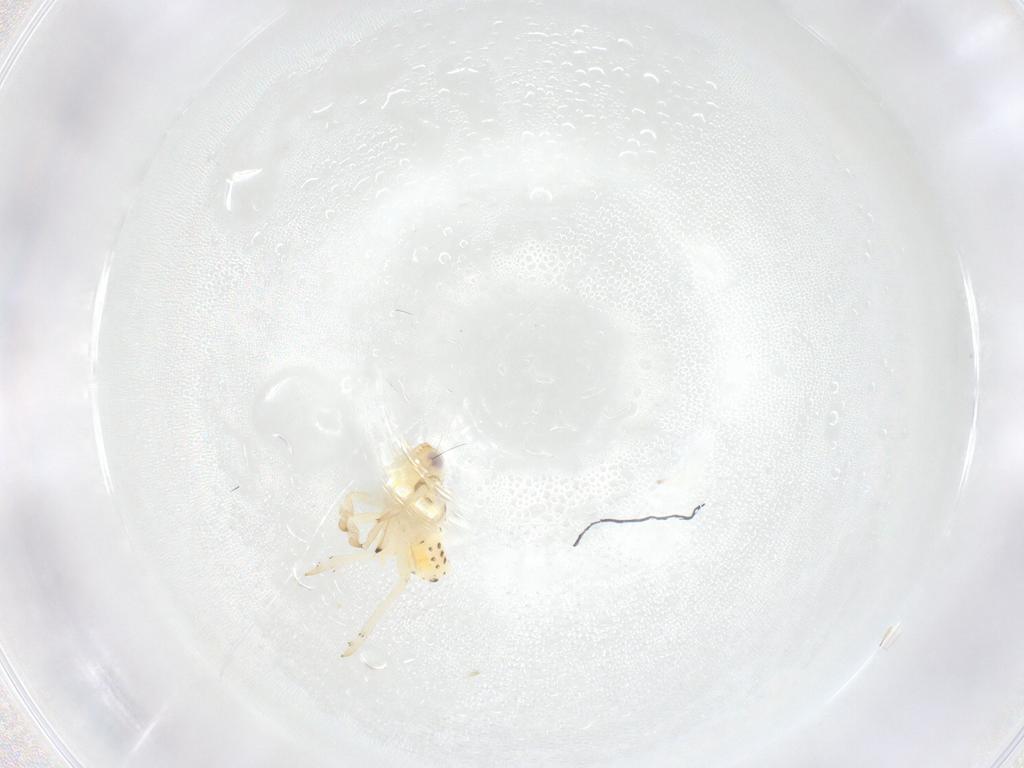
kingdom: Animalia
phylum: Arthropoda
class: Insecta
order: Hemiptera
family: Tropiduchidae
